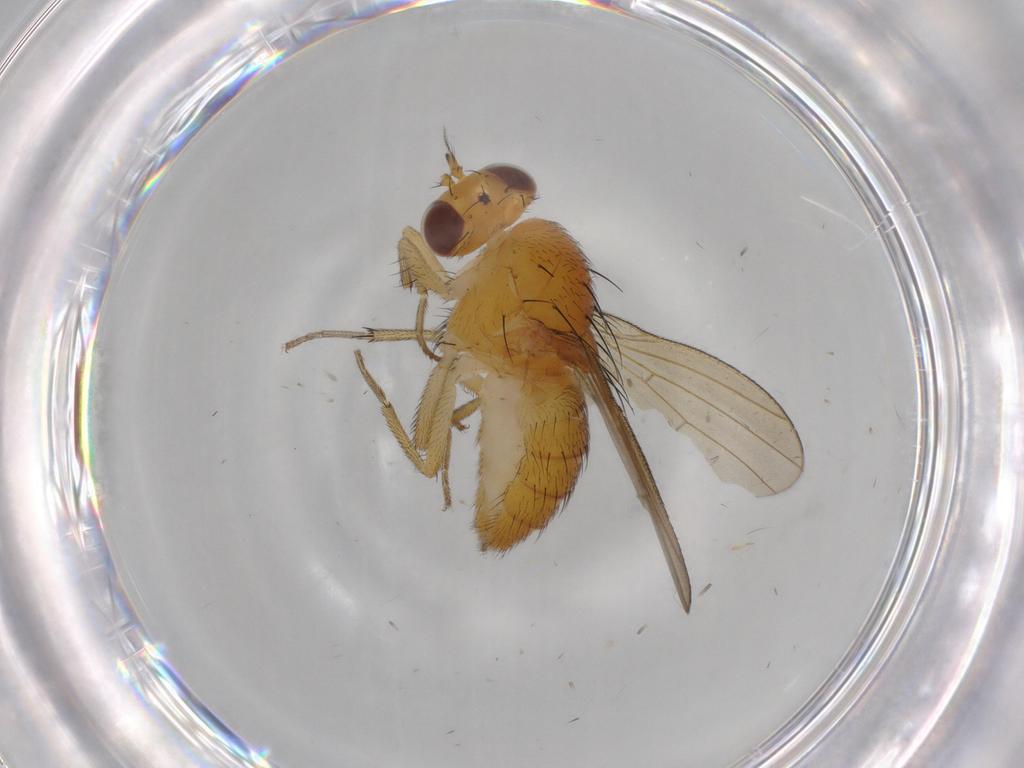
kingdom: Animalia
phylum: Arthropoda
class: Insecta
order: Diptera
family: Lauxaniidae
